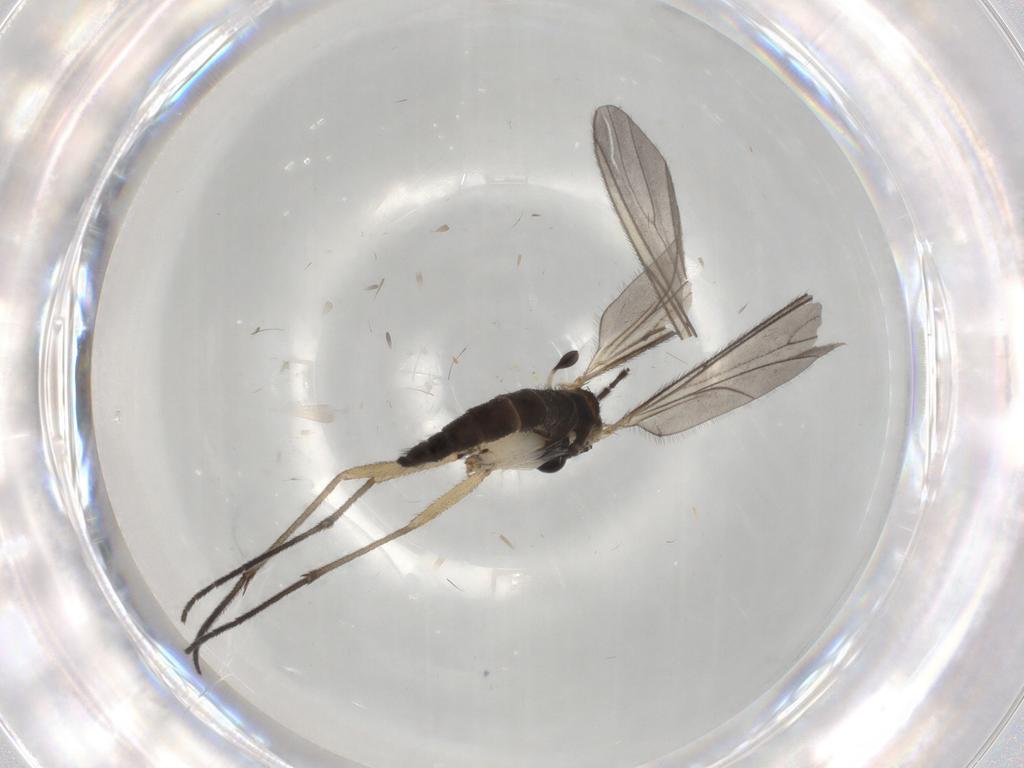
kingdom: Animalia
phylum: Arthropoda
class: Insecta
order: Diptera
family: Sciaridae
